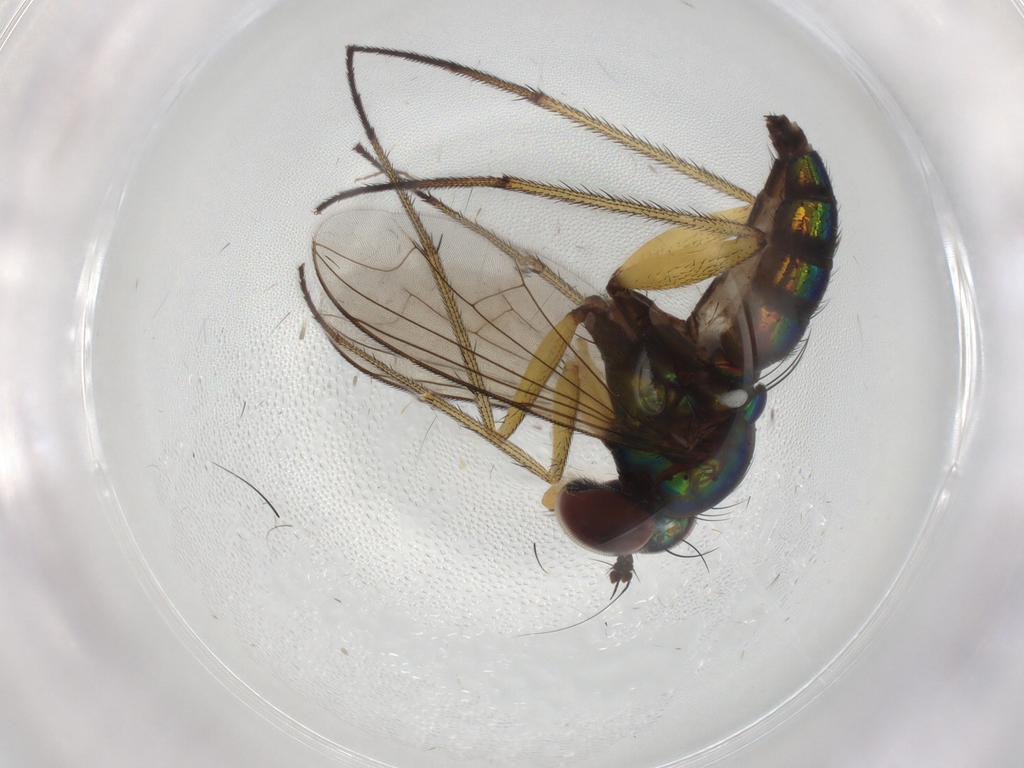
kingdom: Animalia
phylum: Arthropoda
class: Insecta
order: Diptera
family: Dolichopodidae
